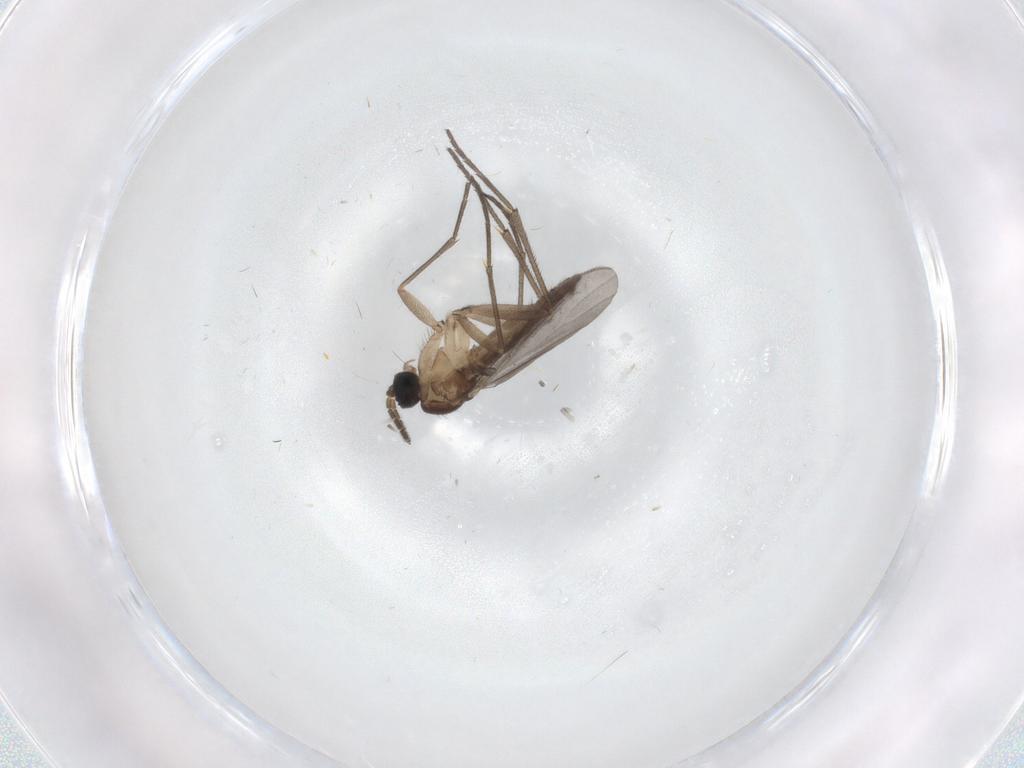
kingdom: Animalia
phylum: Arthropoda
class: Insecta
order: Diptera
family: Sciaridae
